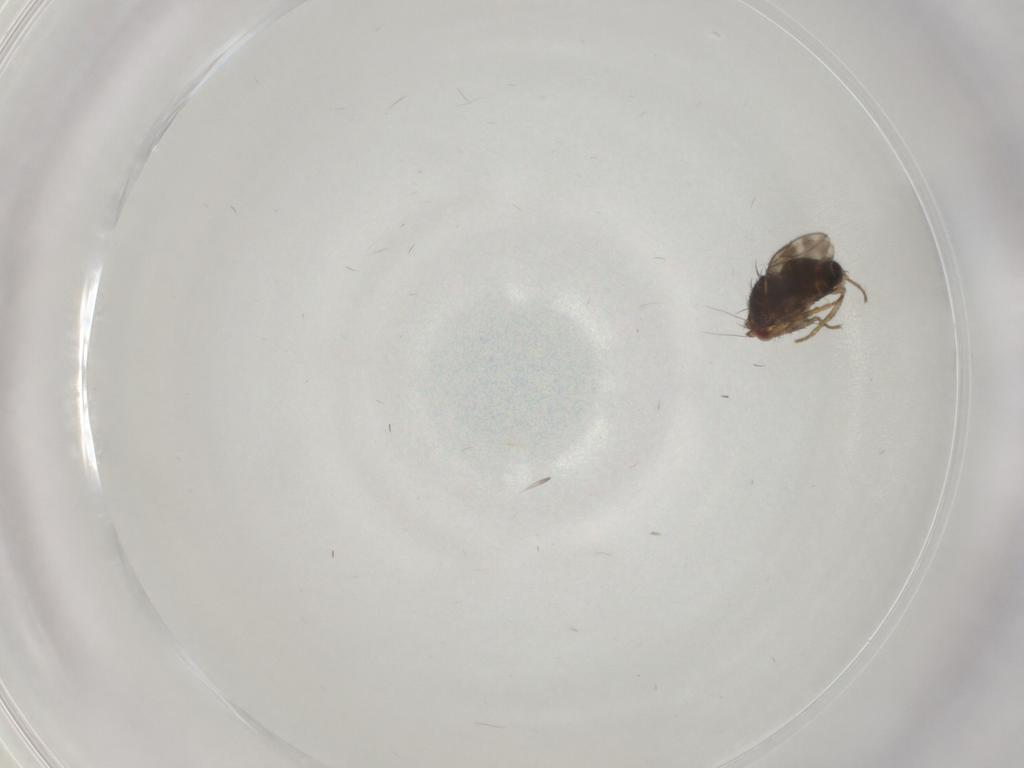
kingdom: Animalia
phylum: Arthropoda
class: Insecta
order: Diptera
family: Sphaeroceridae
